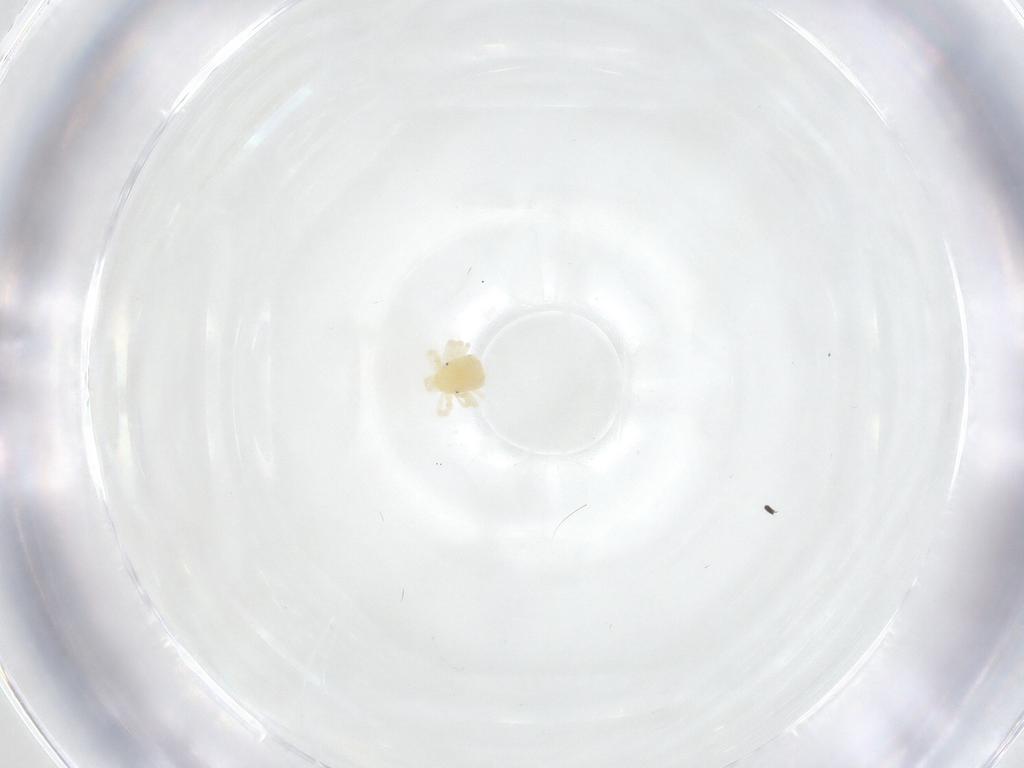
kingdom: Animalia
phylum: Arthropoda
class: Arachnida
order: Trombidiformes
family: Anystidae
